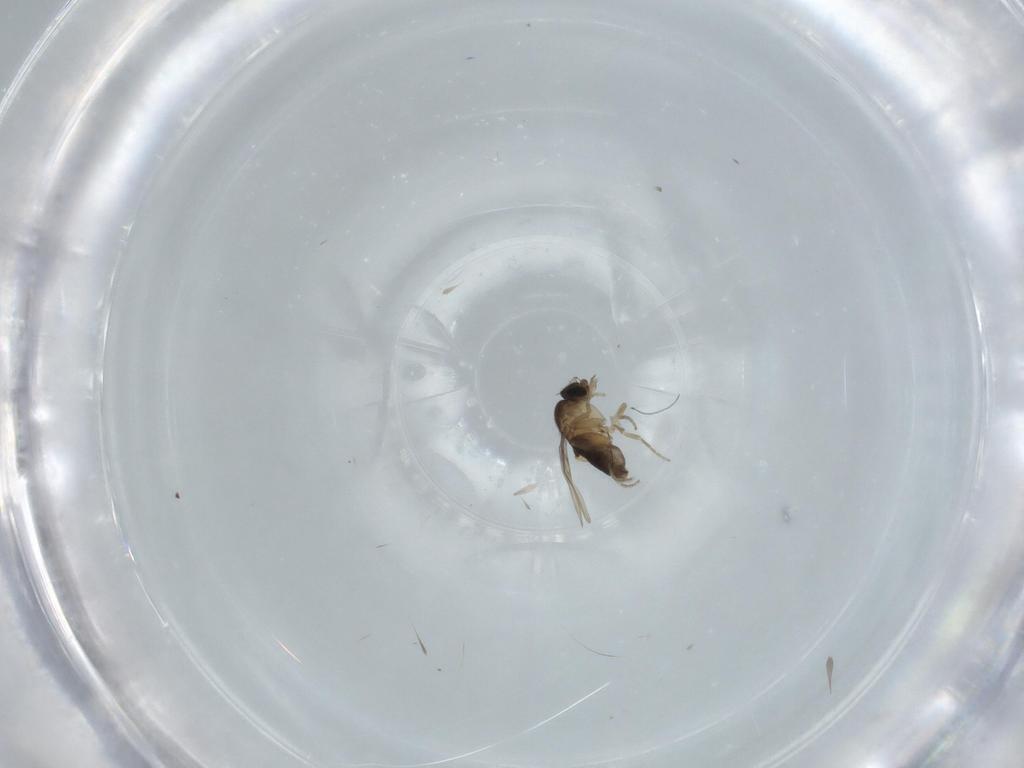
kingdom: Animalia
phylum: Arthropoda
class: Insecta
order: Diptera
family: Phoridae
